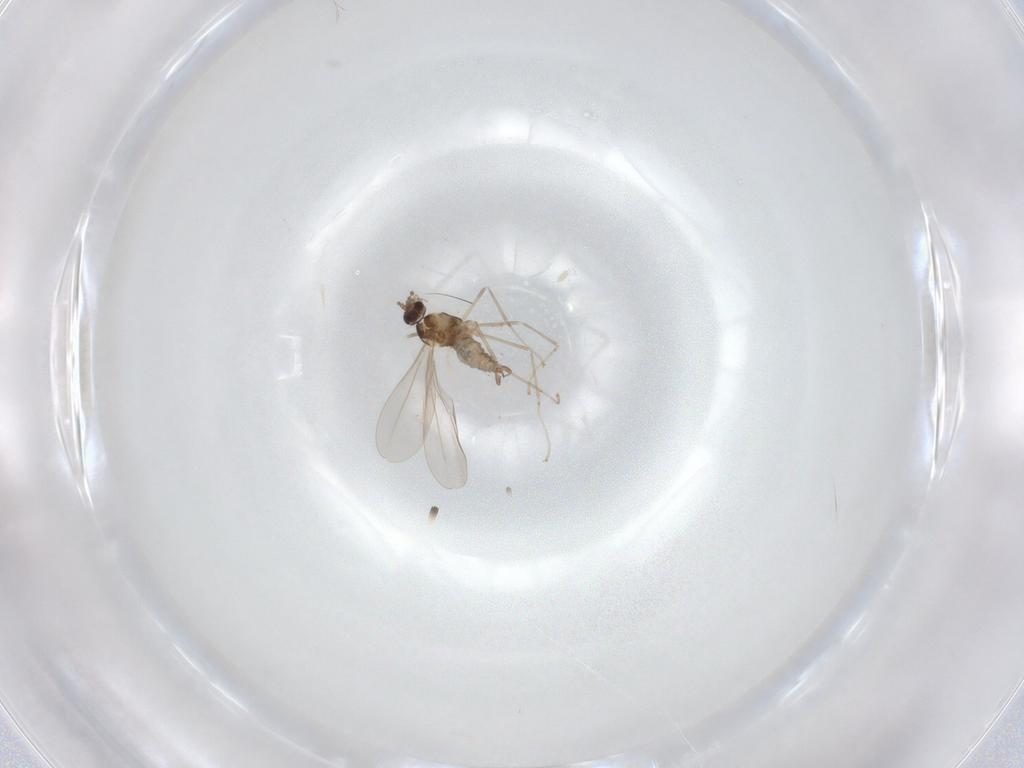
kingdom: Animalia
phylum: Arthropoda
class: Insecta
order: Diptera
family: Cecidomyiidae
